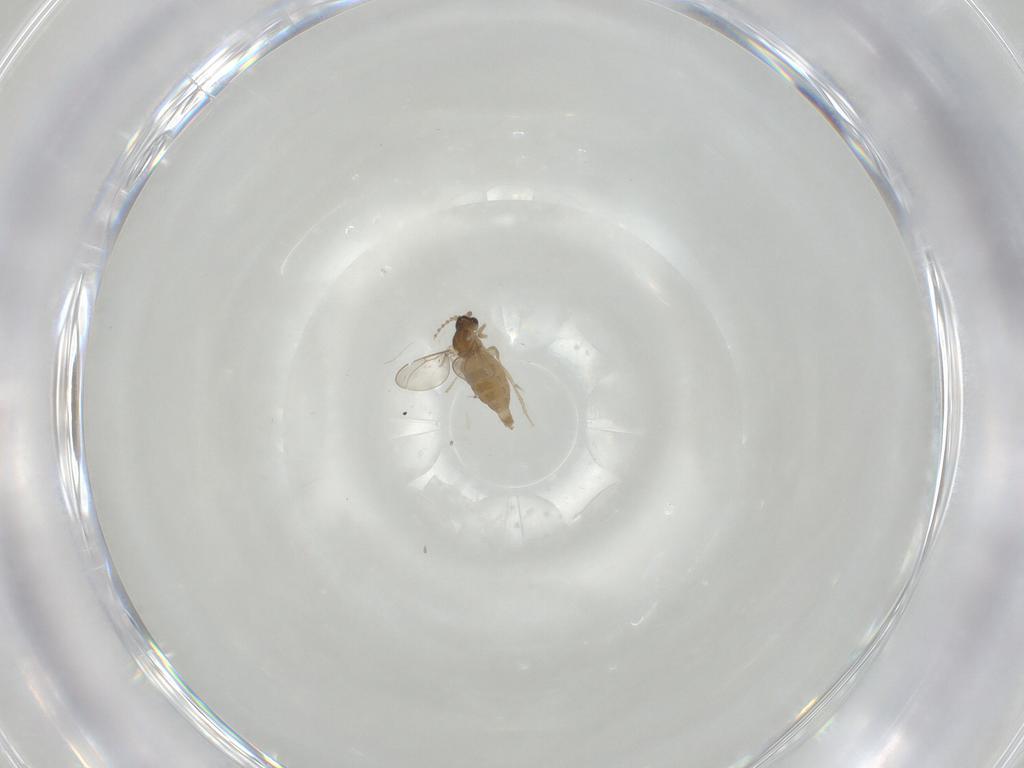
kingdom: Animalia
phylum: Arthropoda
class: Insecta
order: Diptera
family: Cecidomyiidae
